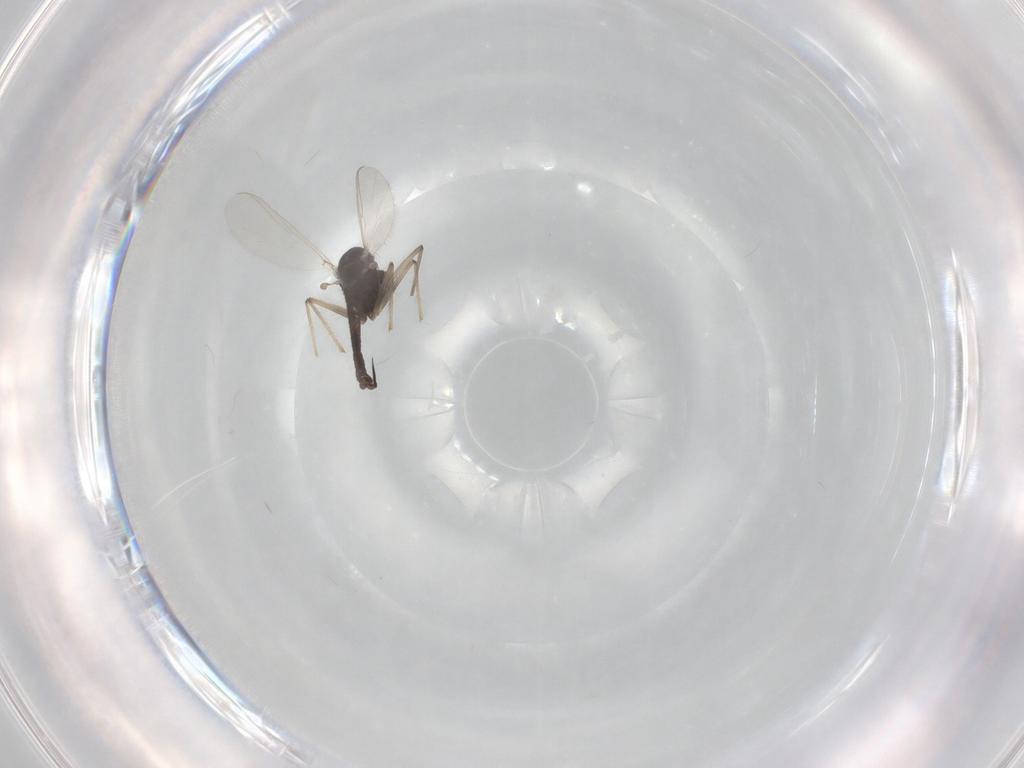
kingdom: Animalia
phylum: Arthropoda
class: Insecta
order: Diptera
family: Chironomidae
